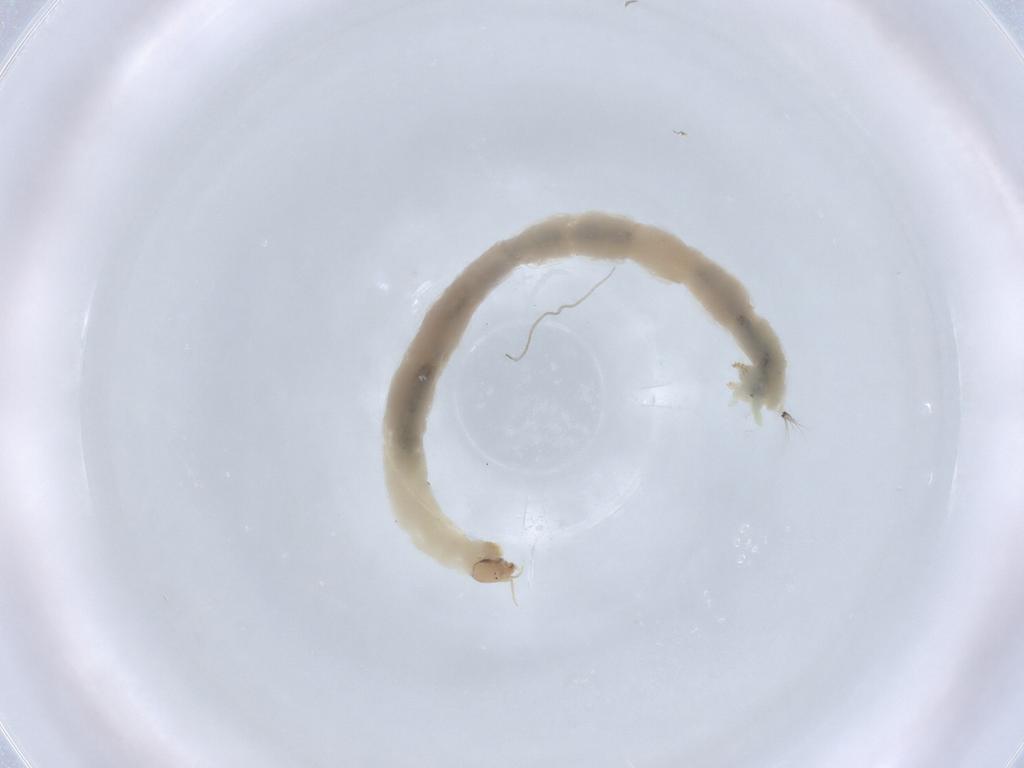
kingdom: Animalia
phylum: Arthropoda
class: Insecta
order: Diptera
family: Chironomidae
